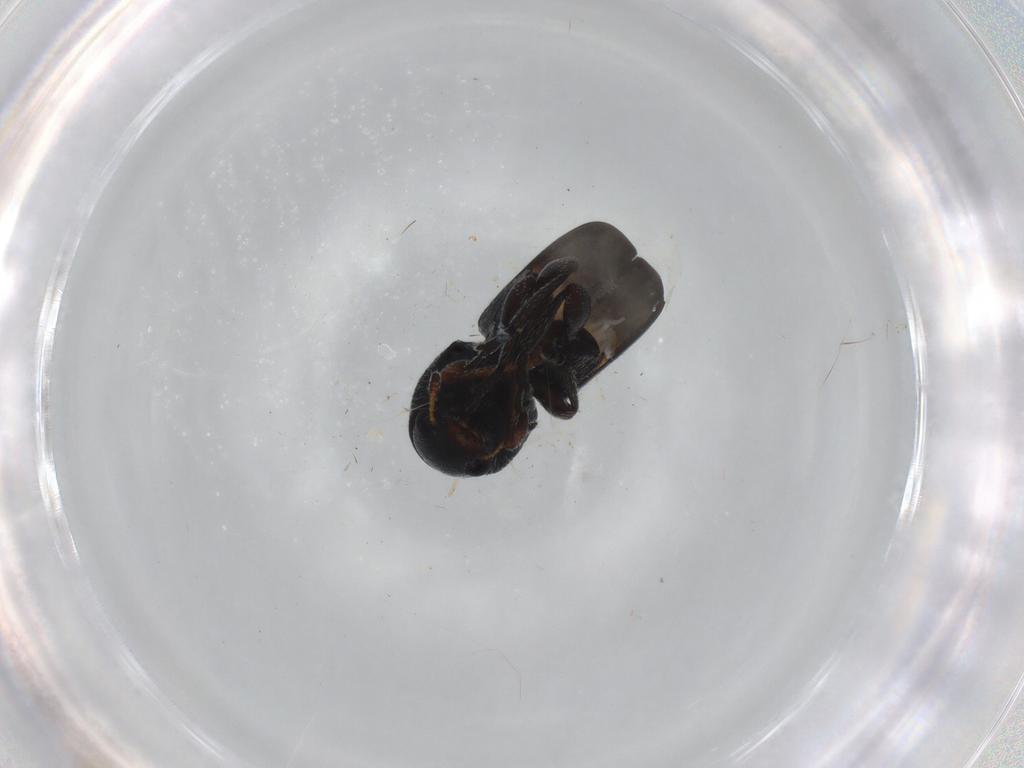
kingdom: Animalia
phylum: Arthropoda
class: Insecta
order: Coleoptera
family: Anthribidae
